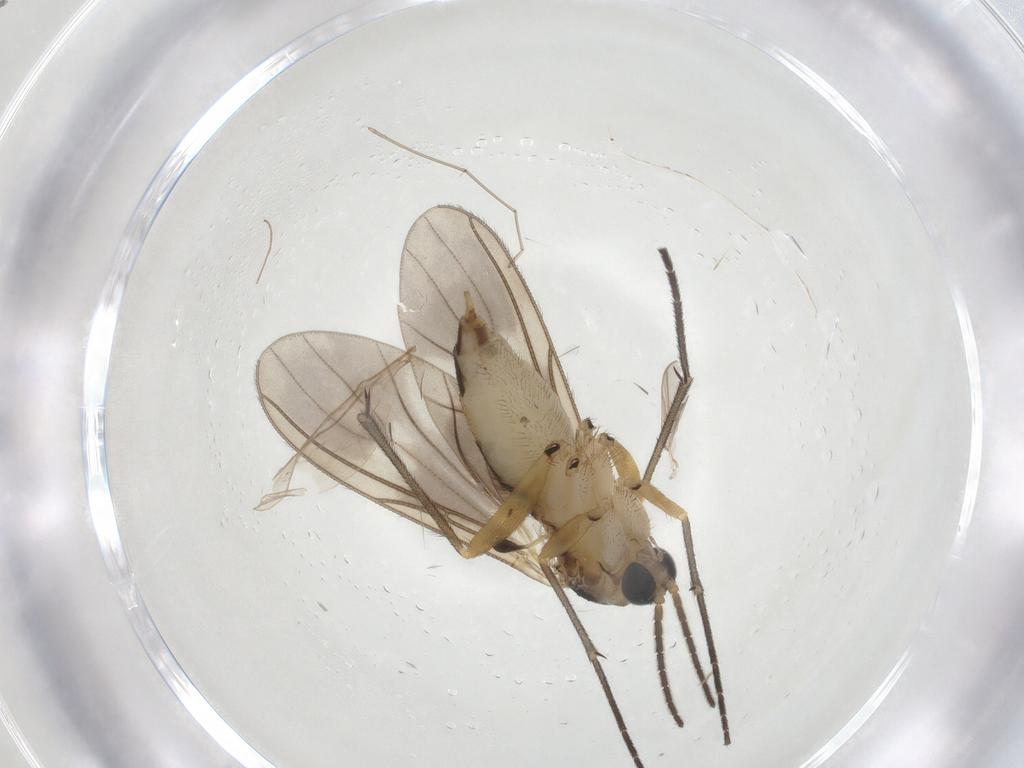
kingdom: Animalia
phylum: Arthropoda
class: Insecta
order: Diptera
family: Sciaridae
